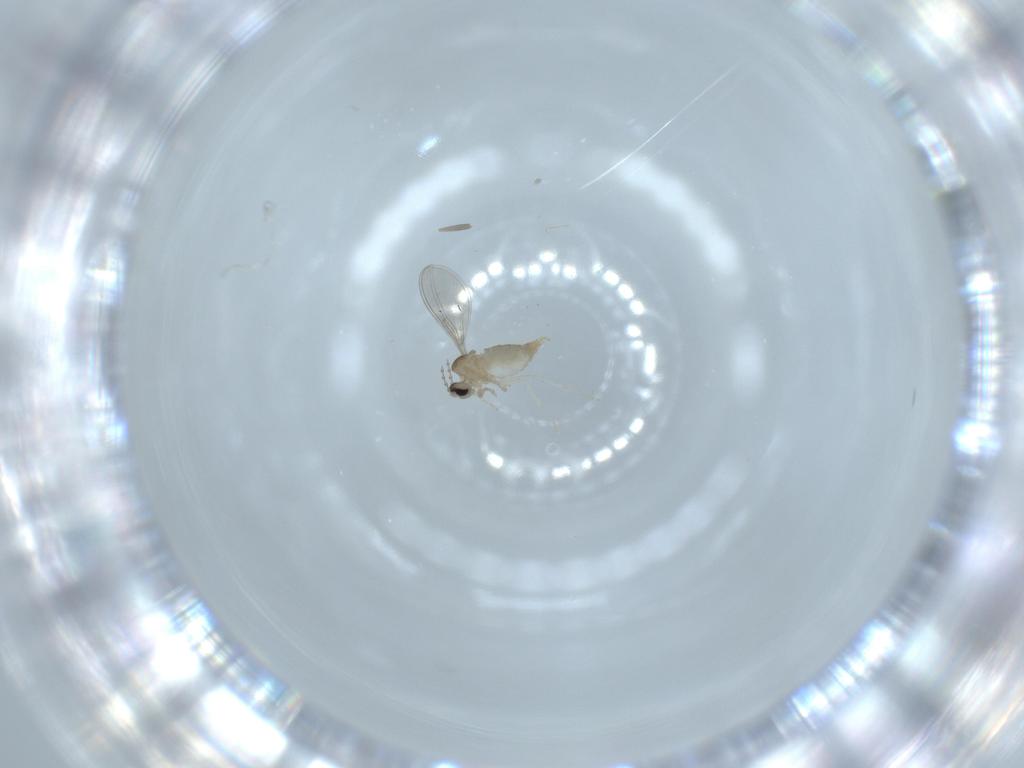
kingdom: Animalia
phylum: Arthropoda
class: Insecta
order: Diptera
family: Cecidomyiidae
